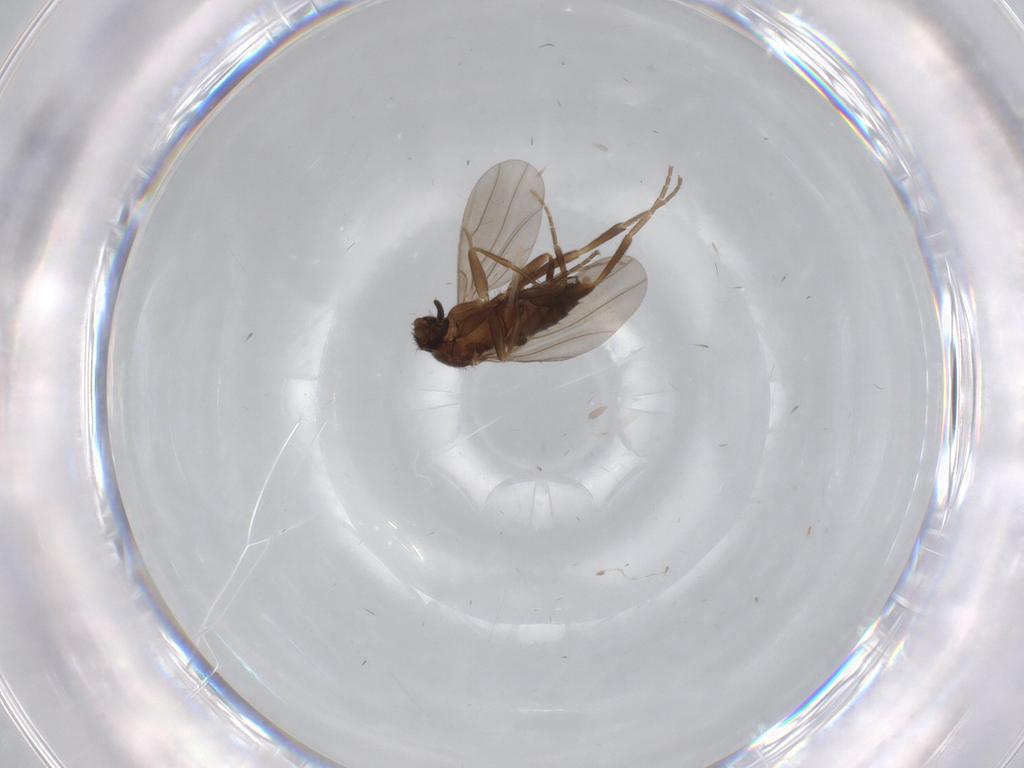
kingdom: Animalia
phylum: Arthropoda
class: Insecta
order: Diptera
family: Phoridae
